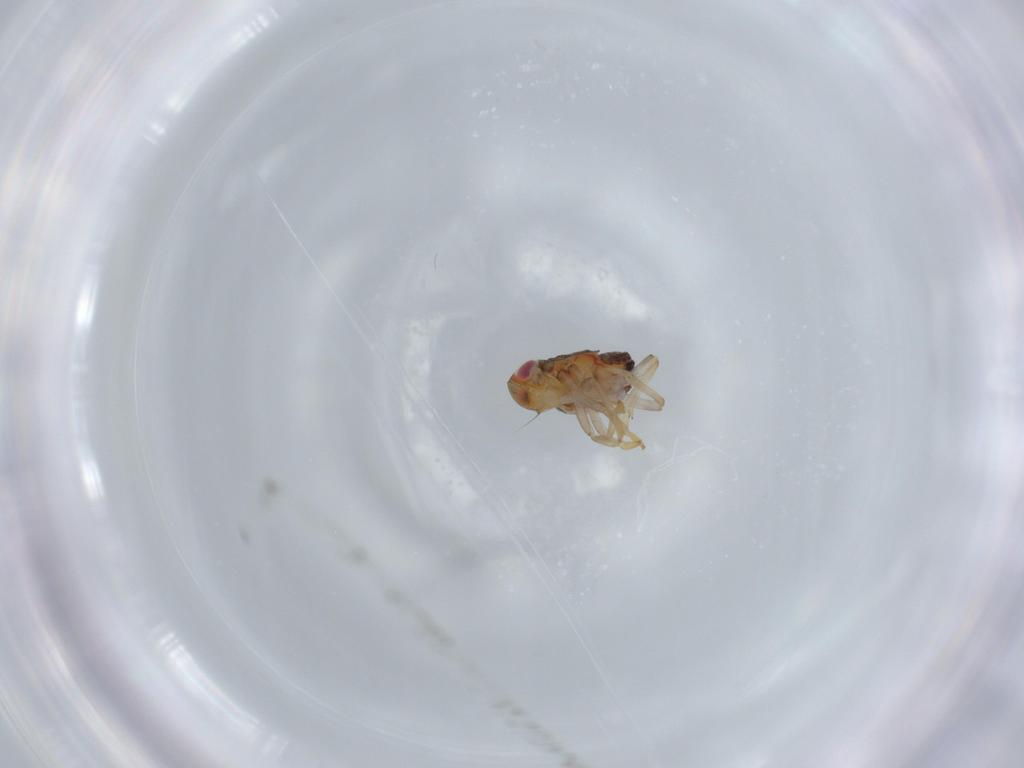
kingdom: Animalia
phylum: Arthropoda
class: Insecta
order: Hemiptera
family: Issidae
